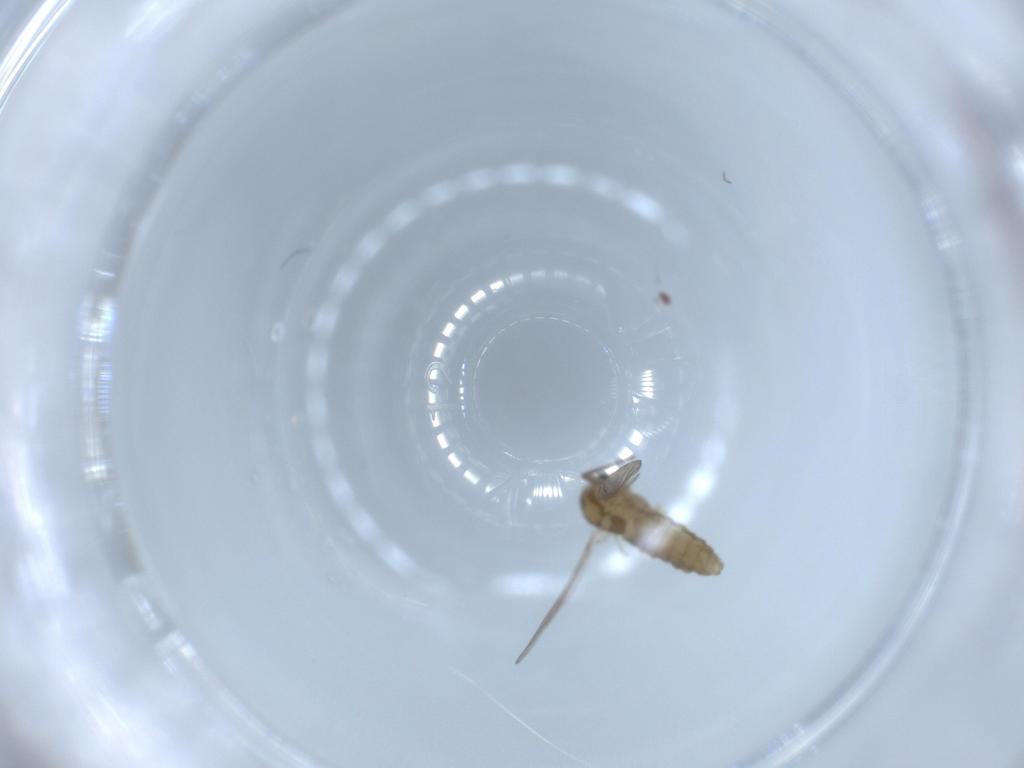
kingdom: Animalia
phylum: Arthropoda
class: Insecta
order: Diptera
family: Chironomidae
